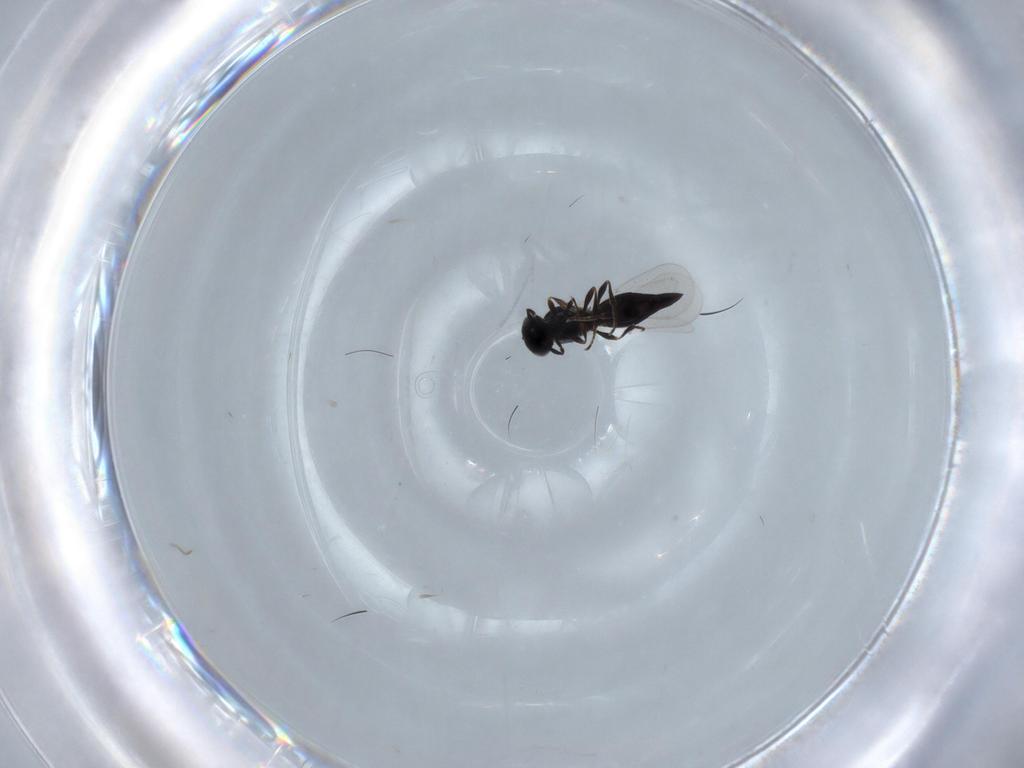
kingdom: Animalia
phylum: Arthropoda
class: Insecta
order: Hymenoptera
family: Platygastridae
